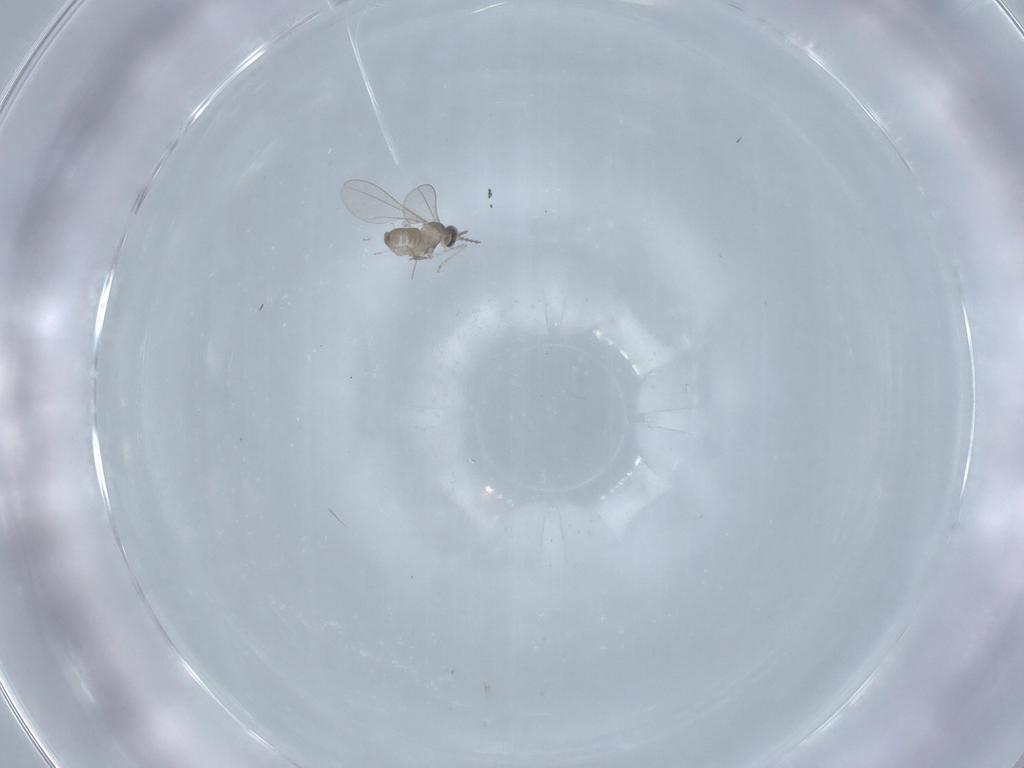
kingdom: Animalia
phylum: Arthropoda
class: Insecta
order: Diptera
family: Cecidomyiidae
